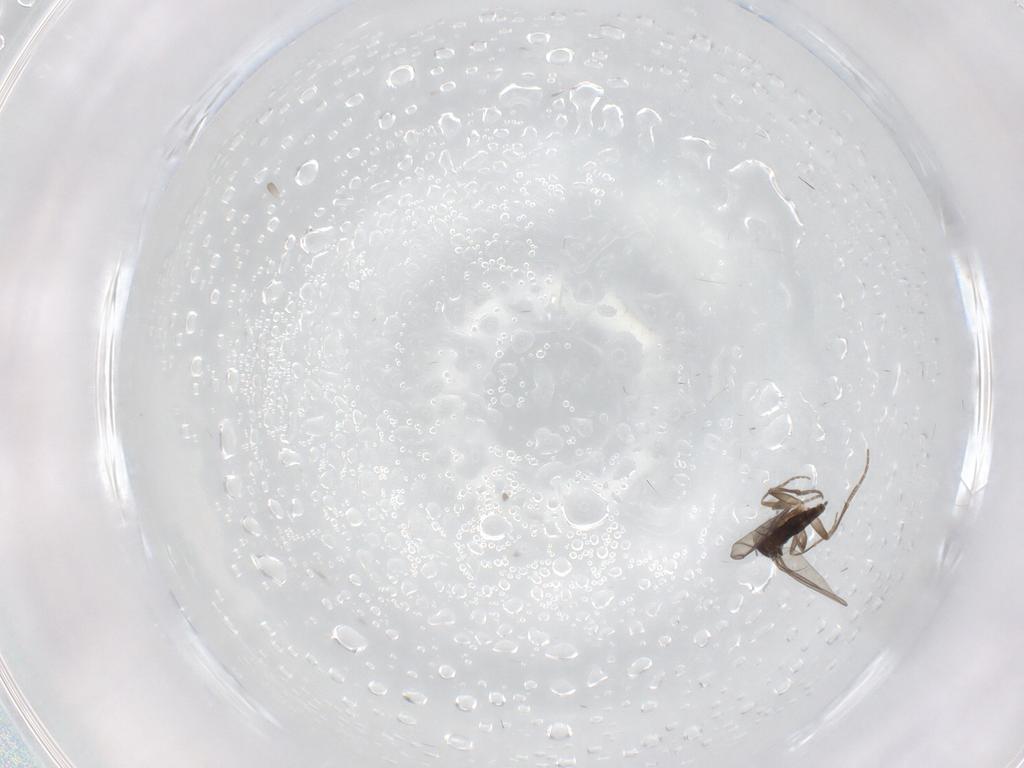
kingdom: Animalia
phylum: Arthropoda
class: Insecta
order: Diptera
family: Phoridae
